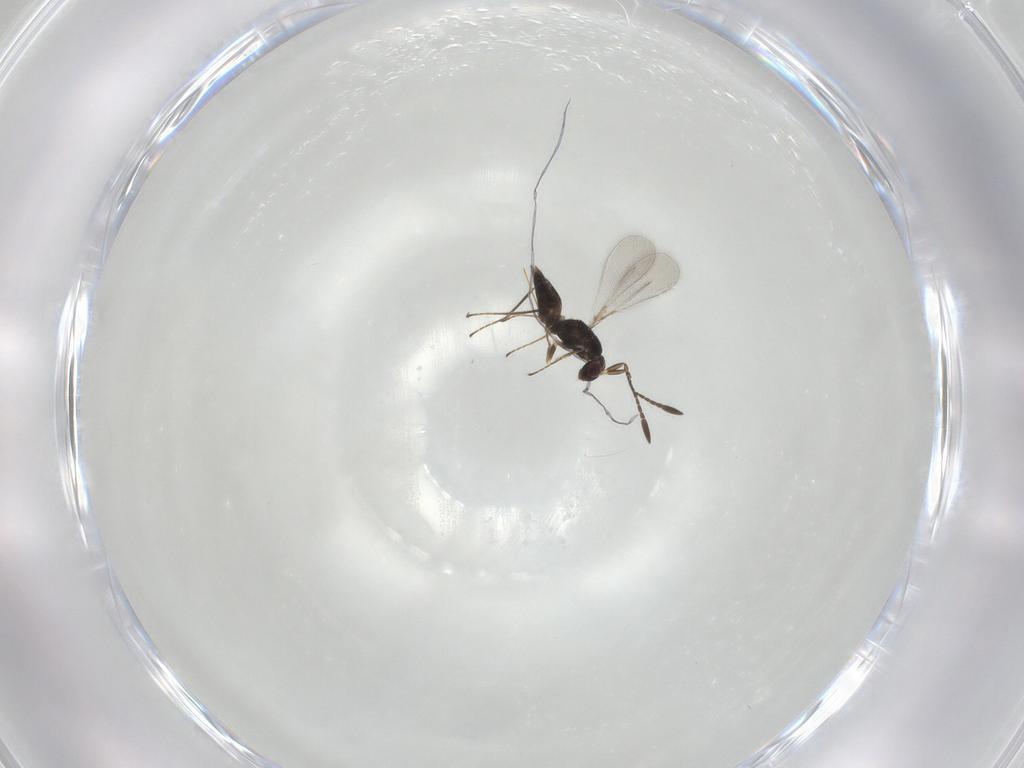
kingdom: Animalia
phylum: Arthropoda
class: Insecta
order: Hymenoptera
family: Mymaridae
